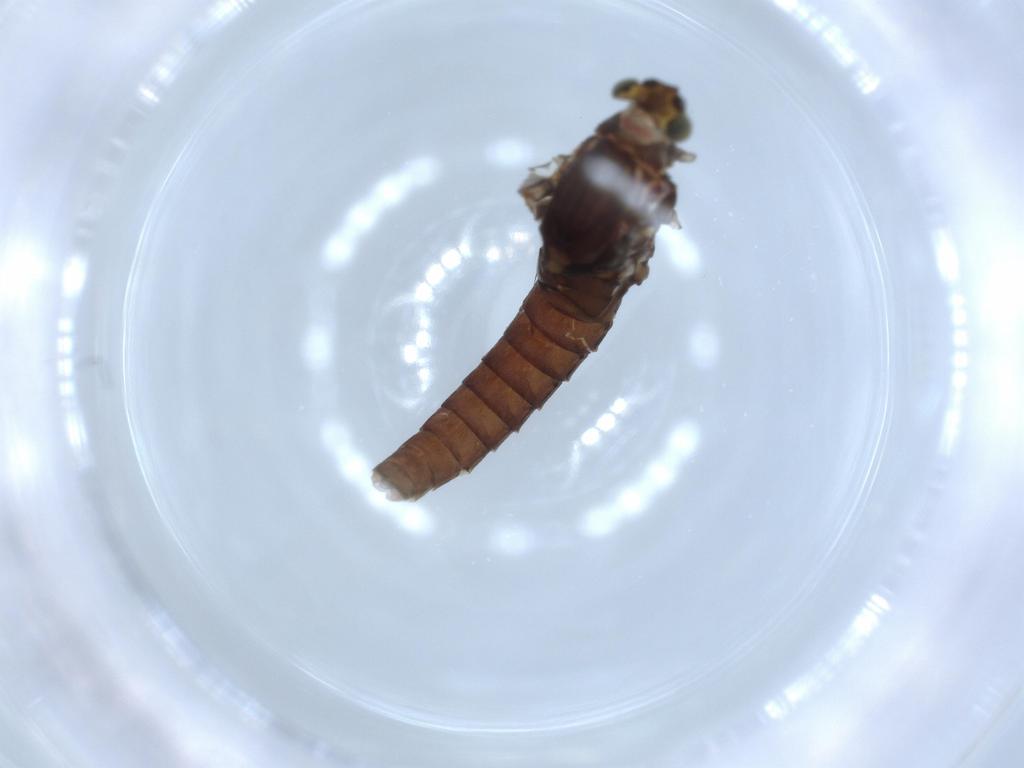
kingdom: Animalia
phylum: Arthropoda
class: Insecta
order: Ephemeroptera
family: Baetidae
